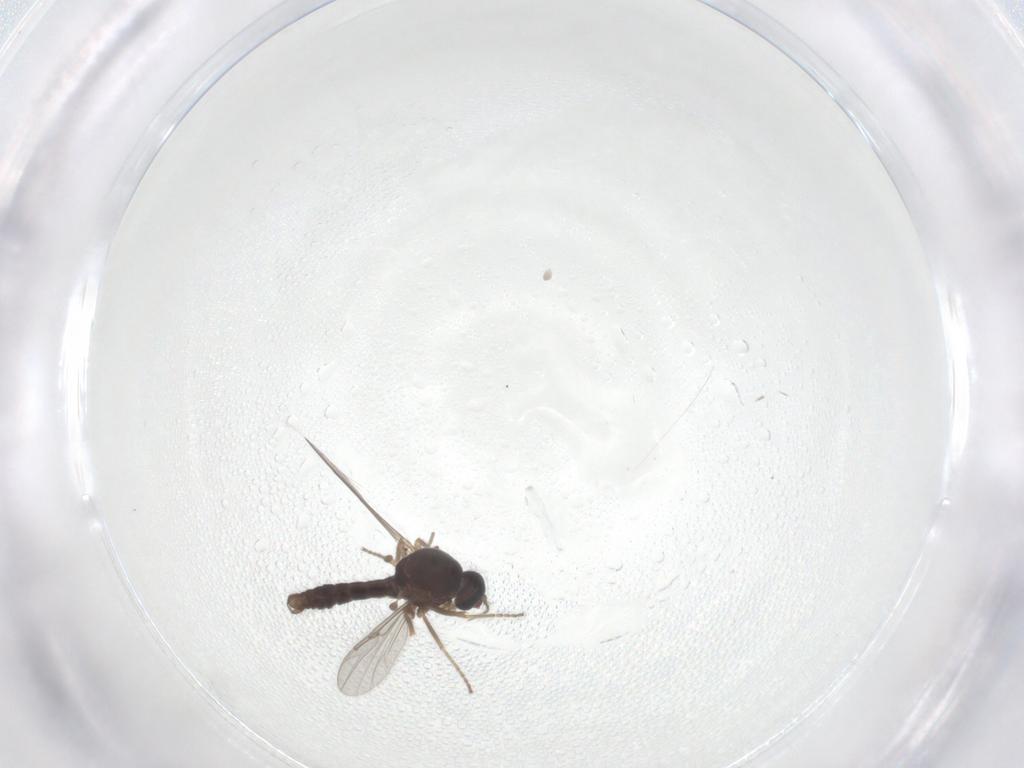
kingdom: Animalia
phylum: Arthropoda
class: Insecta
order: Diptera
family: Ceratopogonidae
